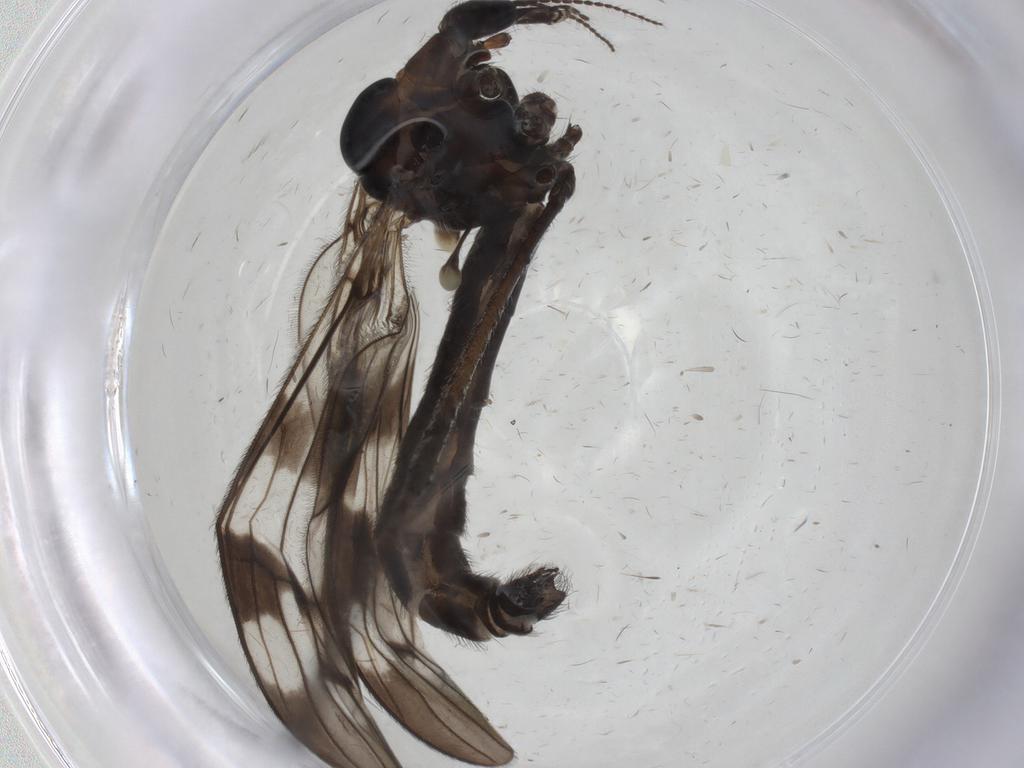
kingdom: Animalia
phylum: Arthropoda
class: Insecta
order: Diptera
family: Limoniidae
